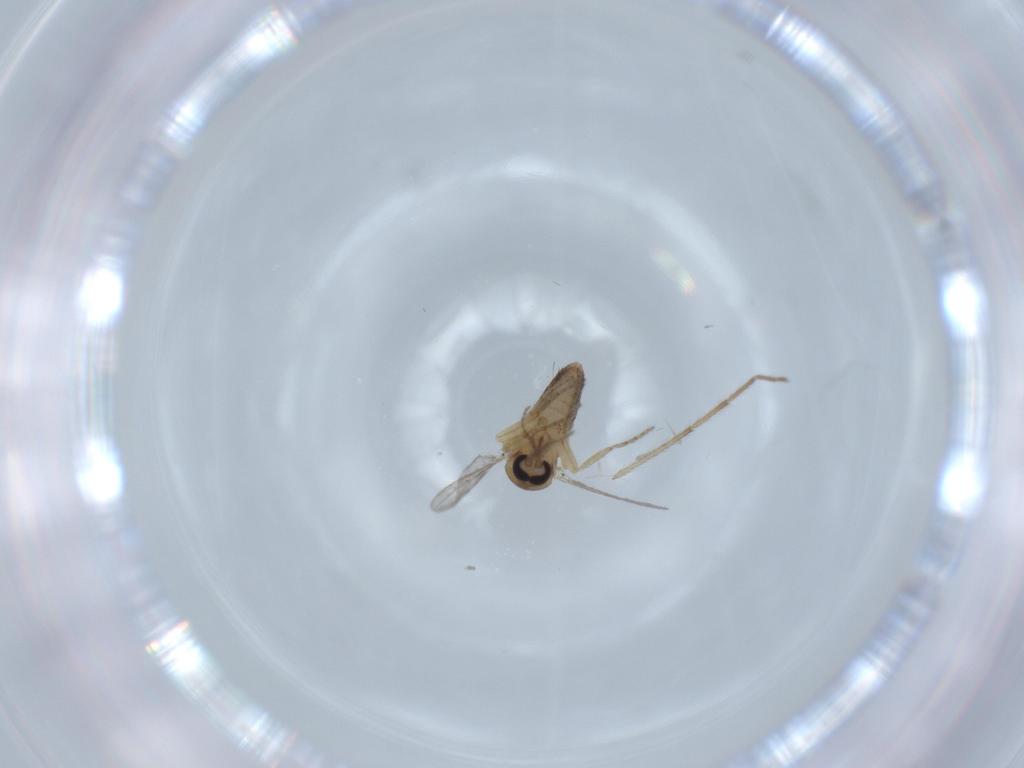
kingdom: Animalia
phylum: Arthropoda
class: Insecta
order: Diptera
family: Ceratopogonidae
